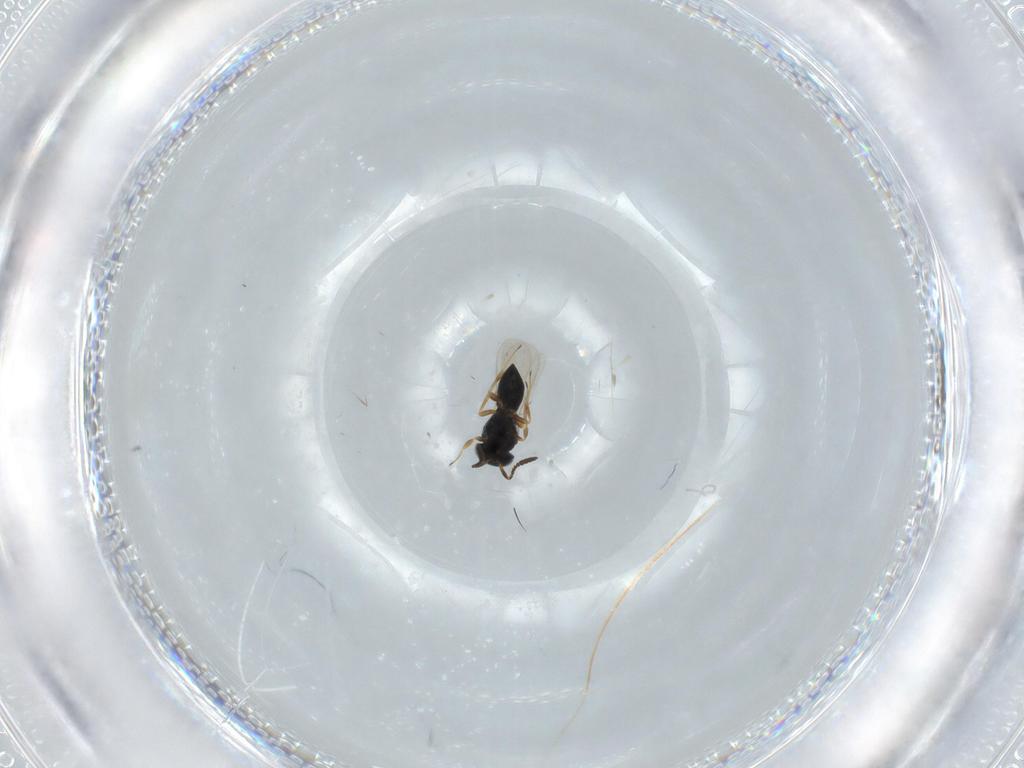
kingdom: Animalia
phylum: Arthropoda
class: Insecta
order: Hymenoptera
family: Scelionidae
